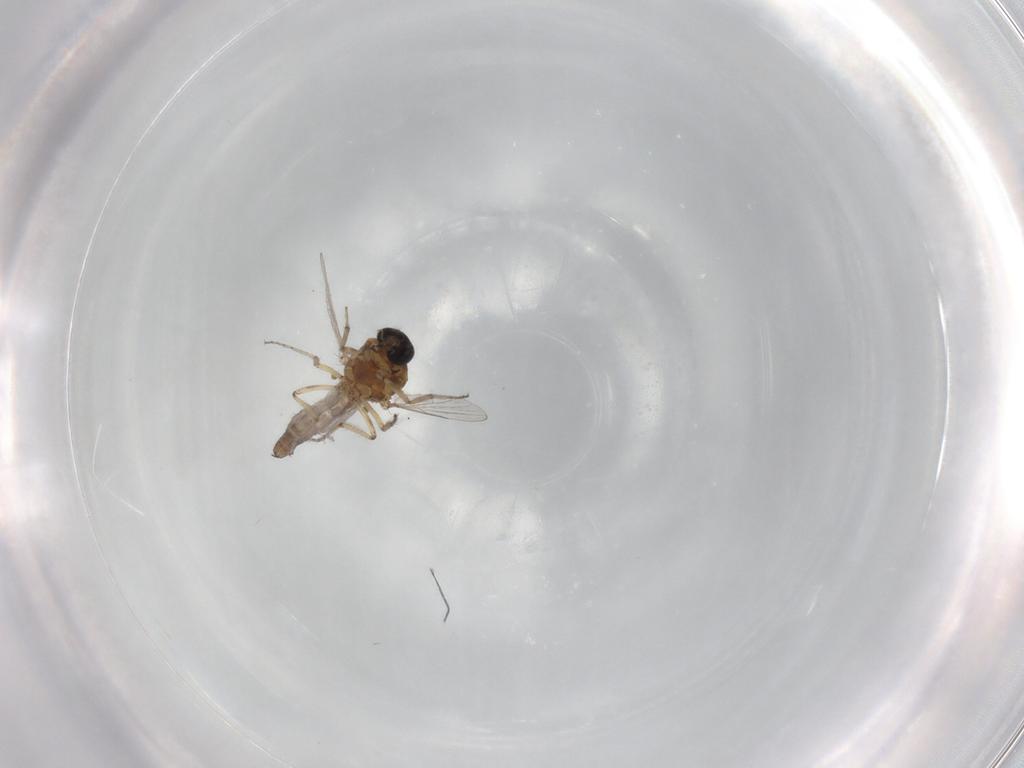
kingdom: Animalia
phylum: Arthropoda
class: Insecta
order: Diptera
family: Ceratopogonidae
